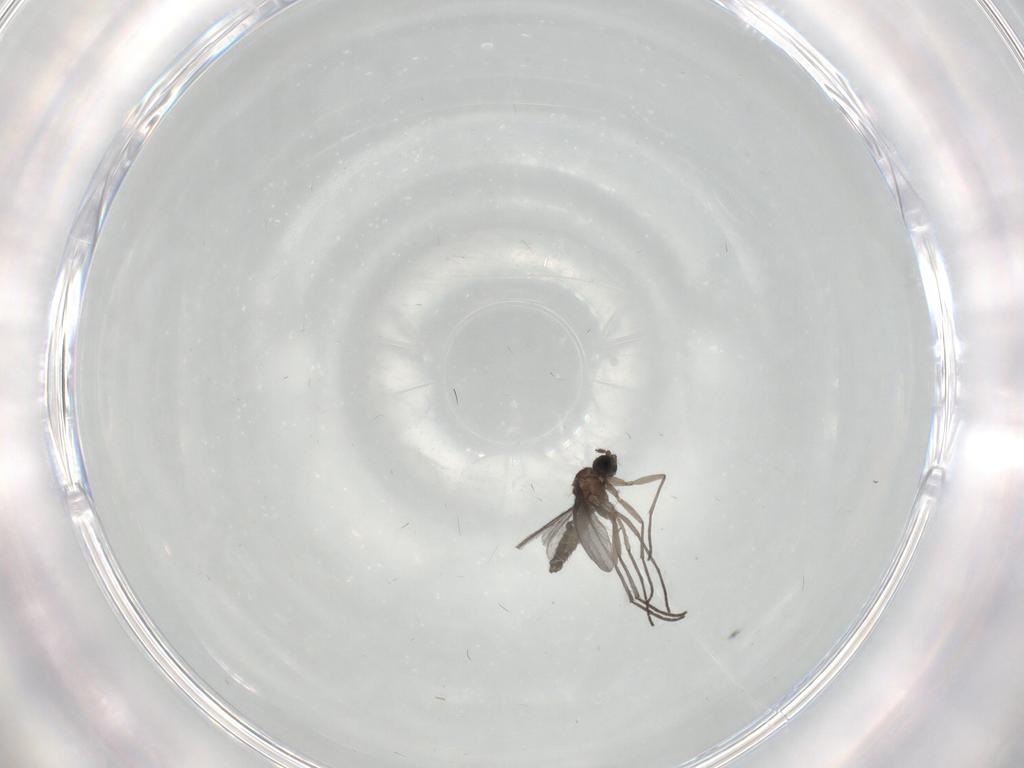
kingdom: Animalia
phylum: Arthropoda
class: Insecta
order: Diptera
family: Sciaridae
